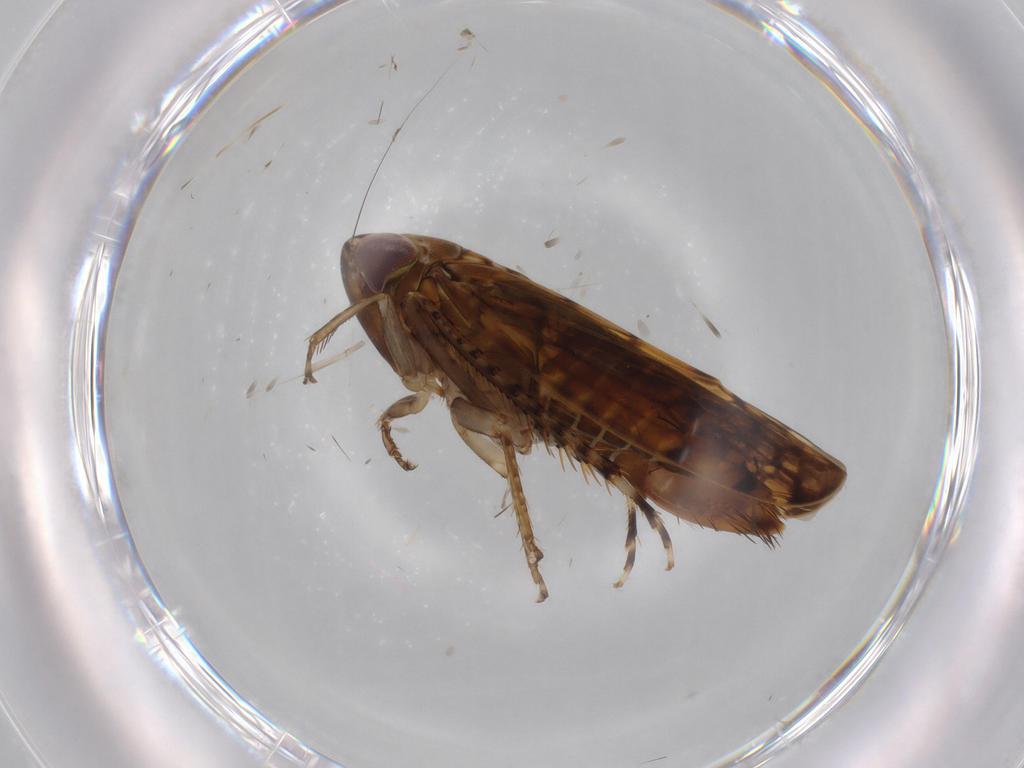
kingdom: Animalia
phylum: Arthropoda
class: Insecta
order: Hemiptera
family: Cicadellidae
